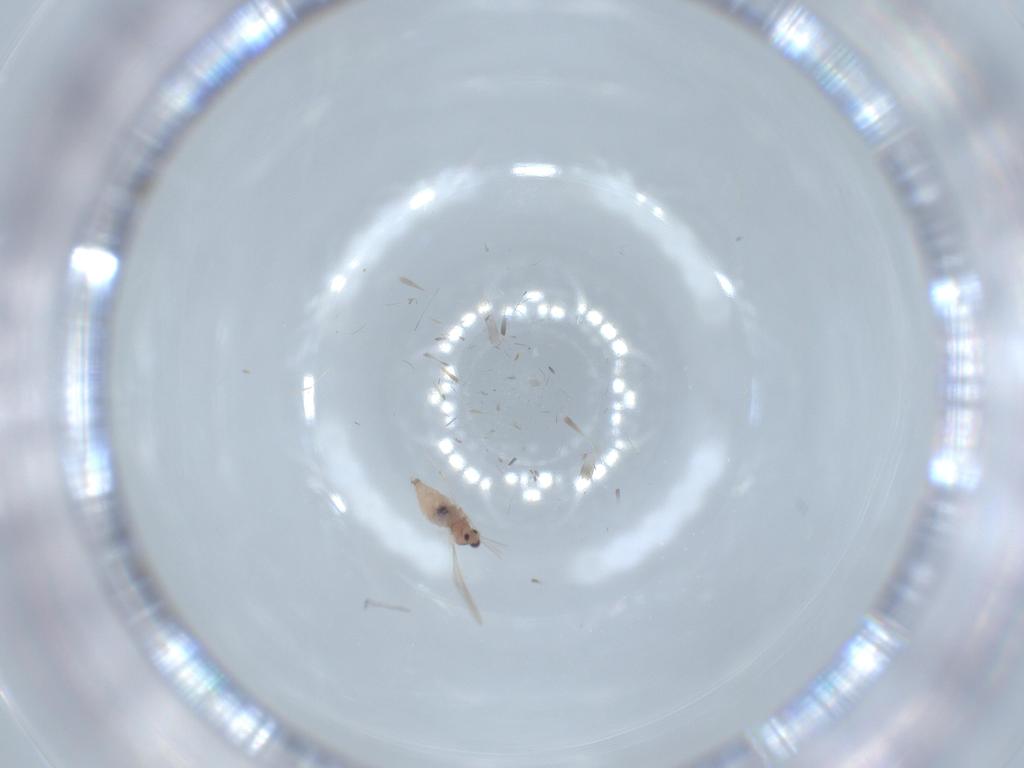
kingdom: Animalia
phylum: Arthropoda
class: Insecta
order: Diptera
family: Cecidomyiidae
